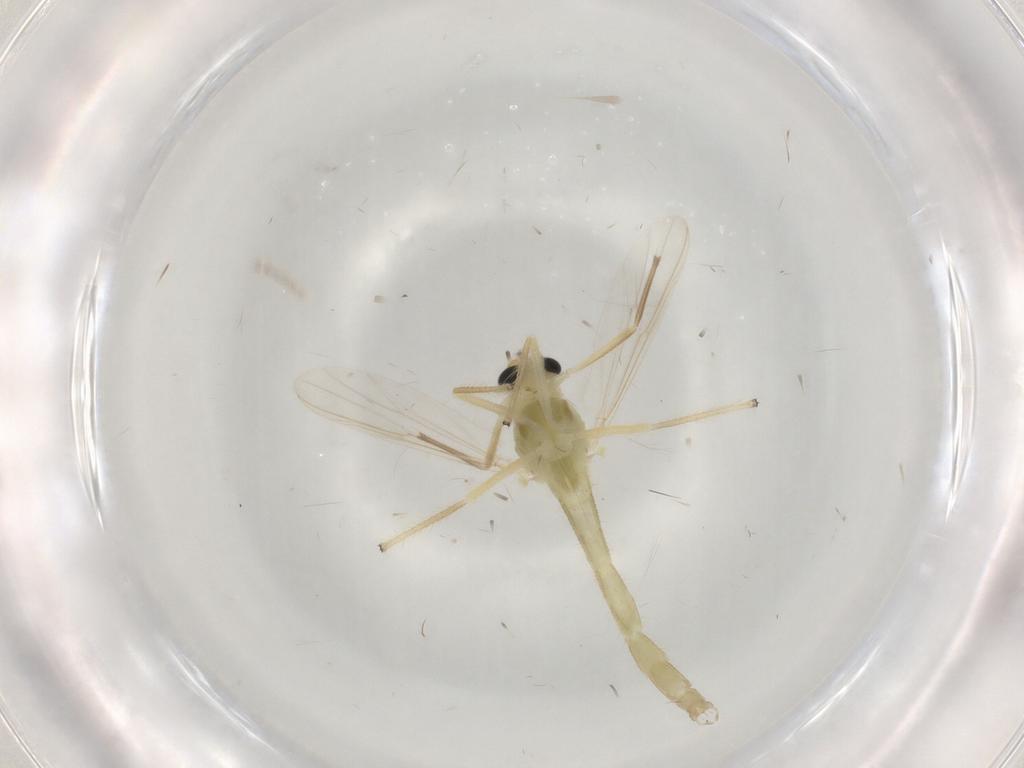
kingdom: Animalia
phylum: Arthropoda
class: Insecta
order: Diptera
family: Chironomidae
